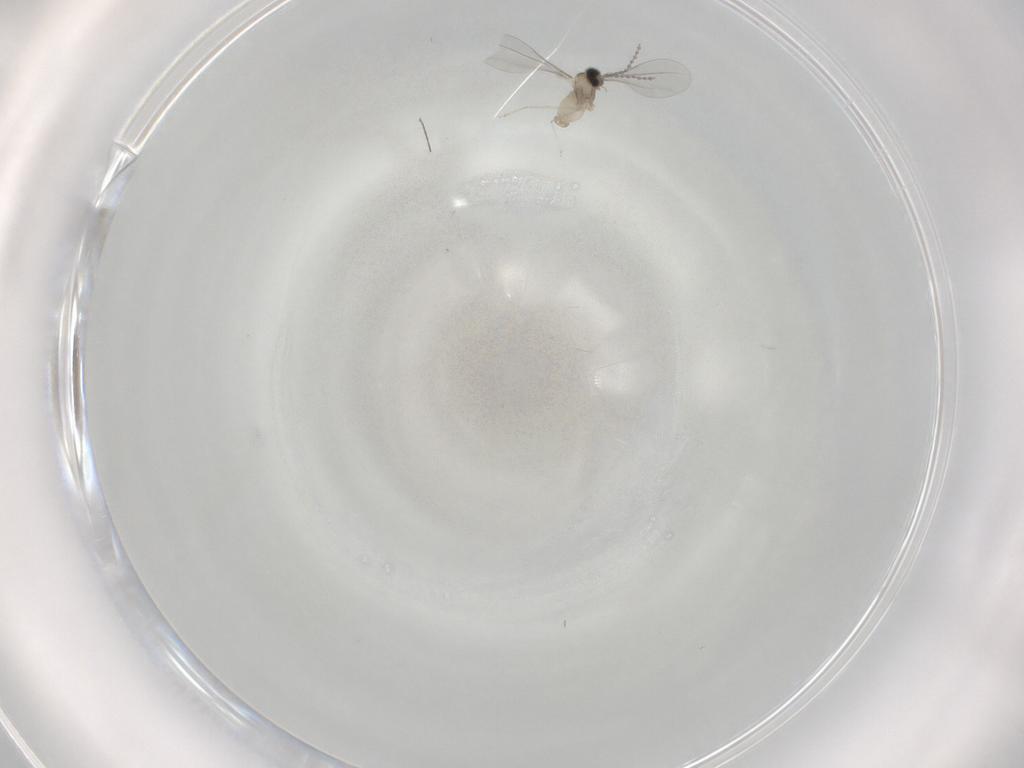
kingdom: Animalia
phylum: Arthropoda
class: Insecta
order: Diptera
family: Cecidomyiidae
